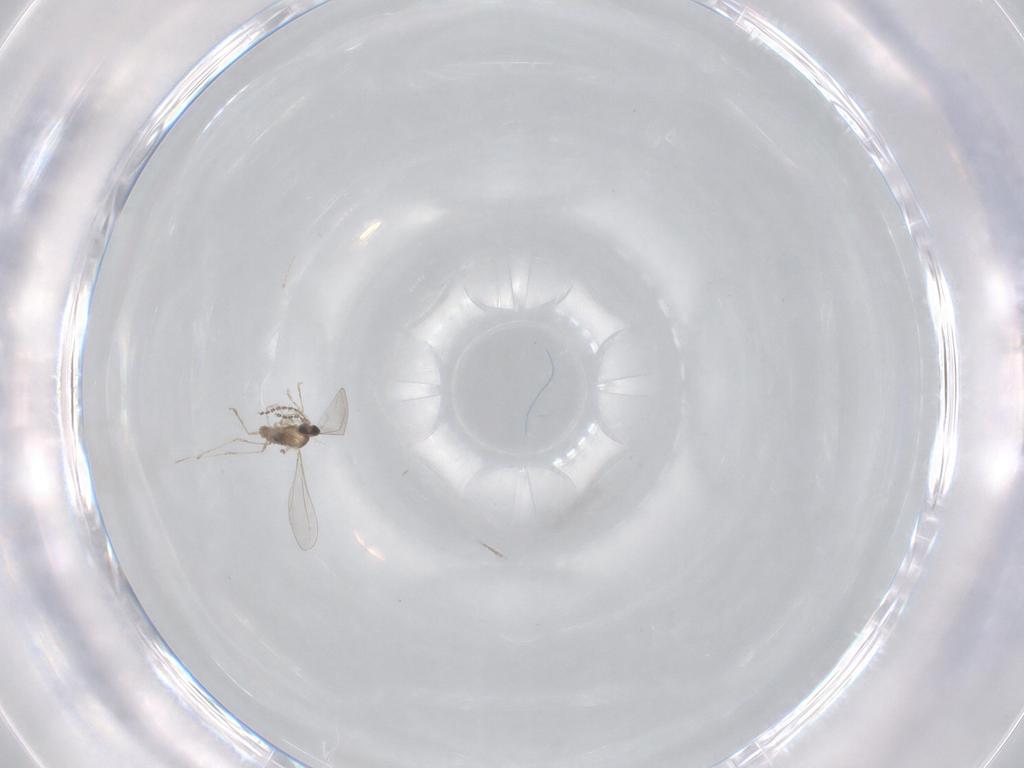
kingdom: Animalia
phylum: Arthropoda
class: Insecta
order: Diptera
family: Chironomidae
